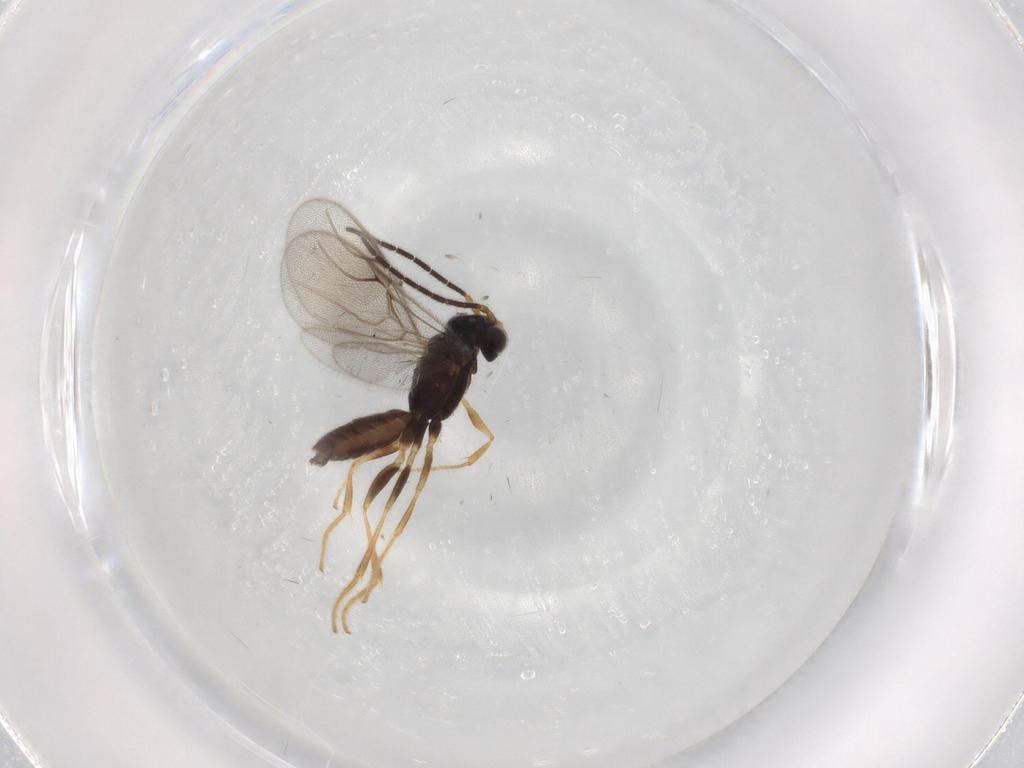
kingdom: Animalia
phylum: Arthropoda
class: Insecta
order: Hymenoptera
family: Dryinidae
